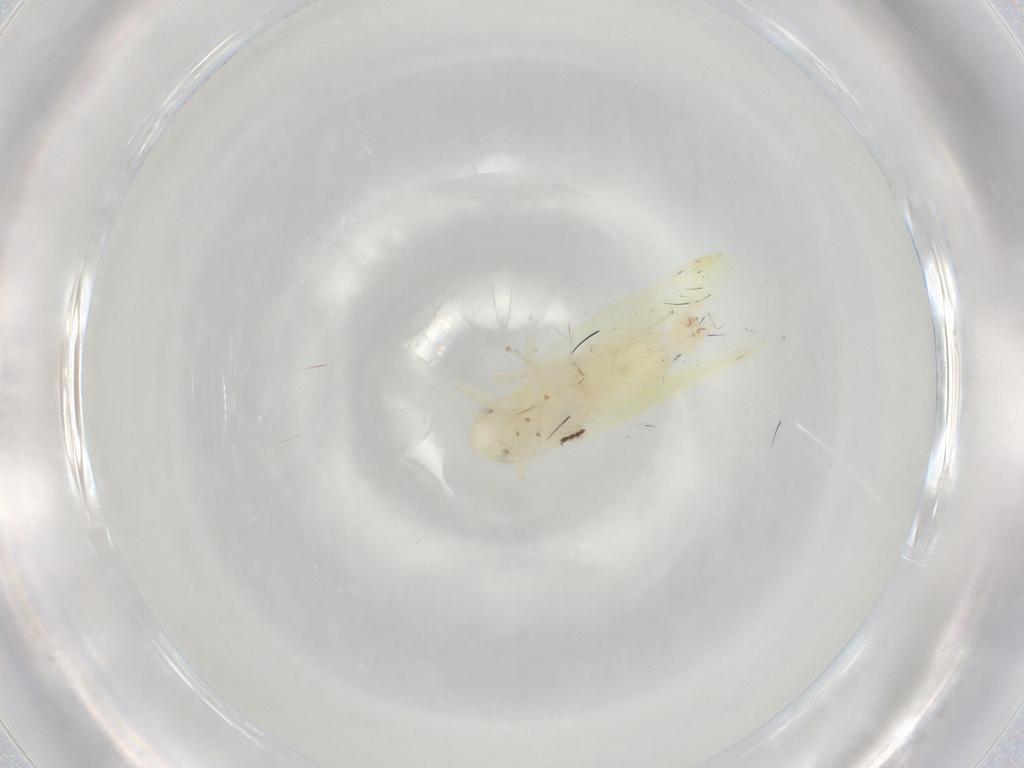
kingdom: Animalia
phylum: Arthropoda
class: Insecta
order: Hemiptera
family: Cicadellidae
